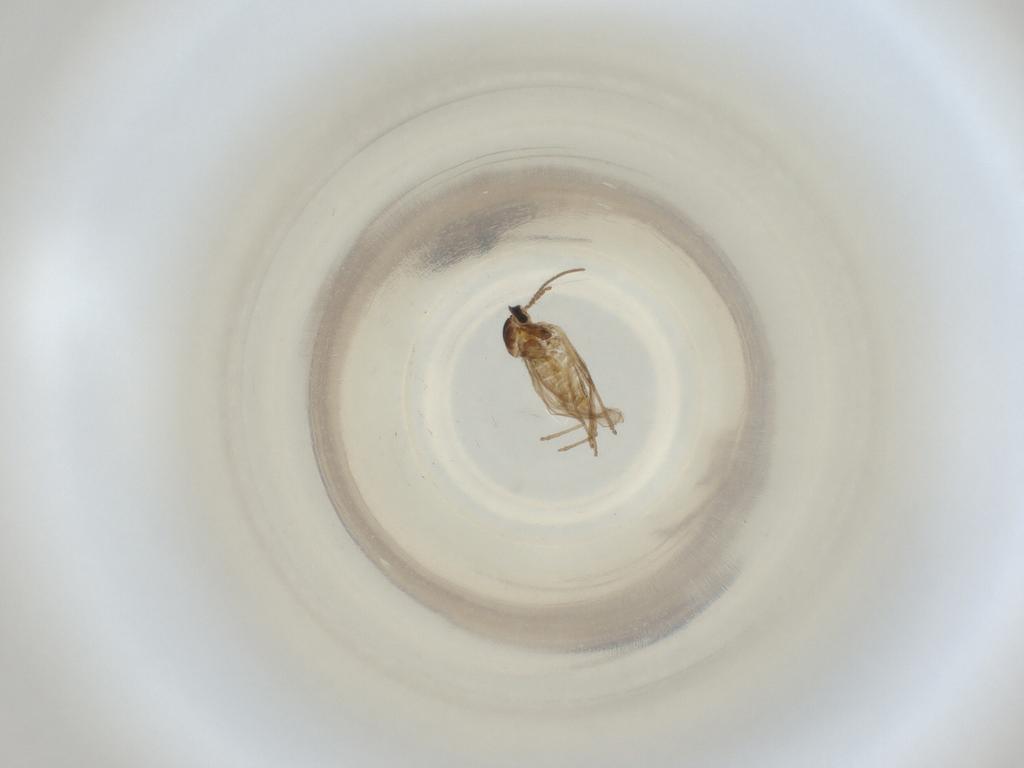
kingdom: Animalia
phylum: Arthropoda
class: Insecta
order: Diptera
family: Cecidomyiidae
